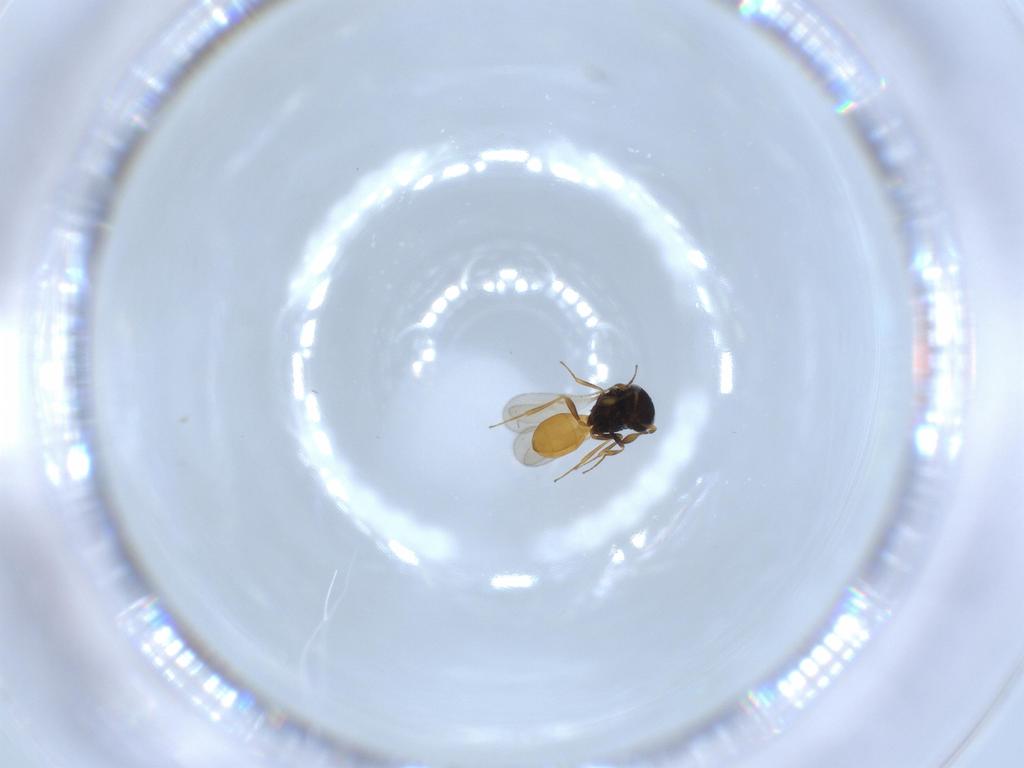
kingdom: Animalia
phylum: Arthropoda
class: Insecta
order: Hymenoptera
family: Scelionidae
